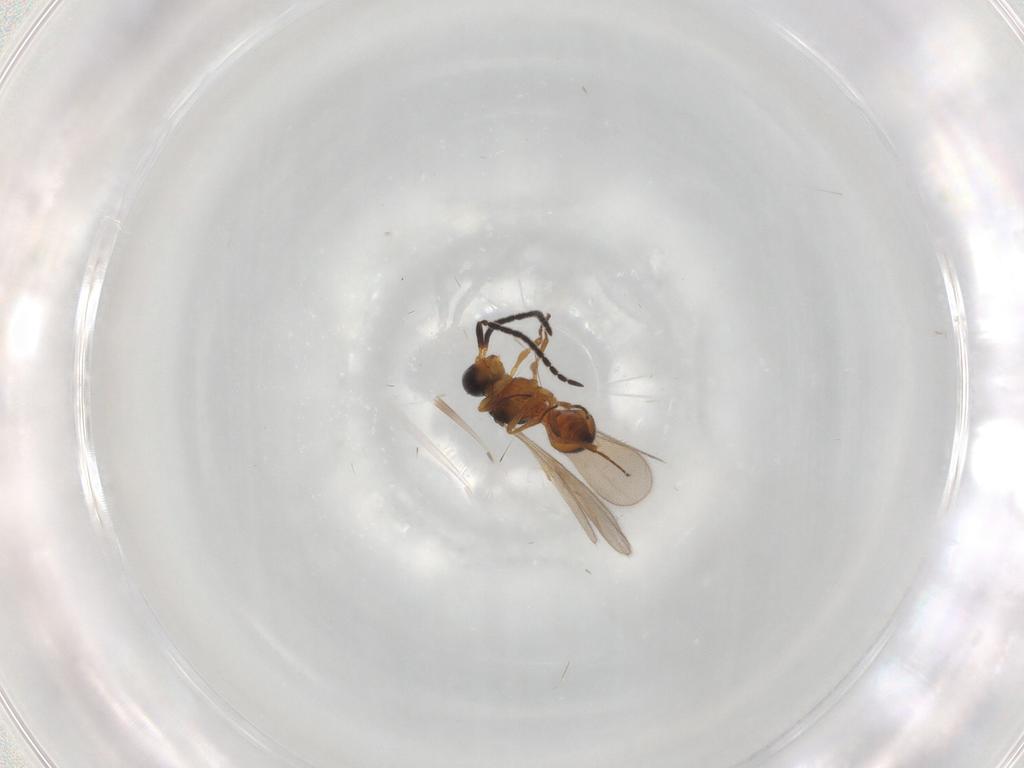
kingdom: Animalia
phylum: Arthropoda
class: Insecta
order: Hymenoptera
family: Scelionidae
